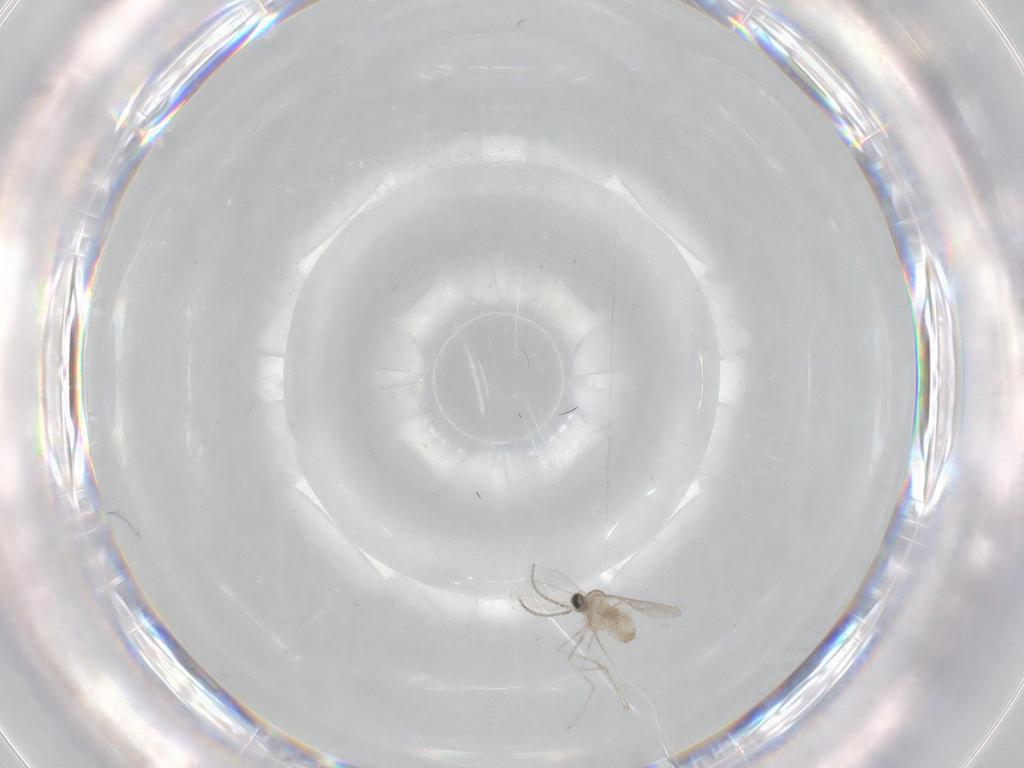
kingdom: Animalia
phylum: Arthropoda
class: Insecta
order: Diptera
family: Cecidomyiidae
